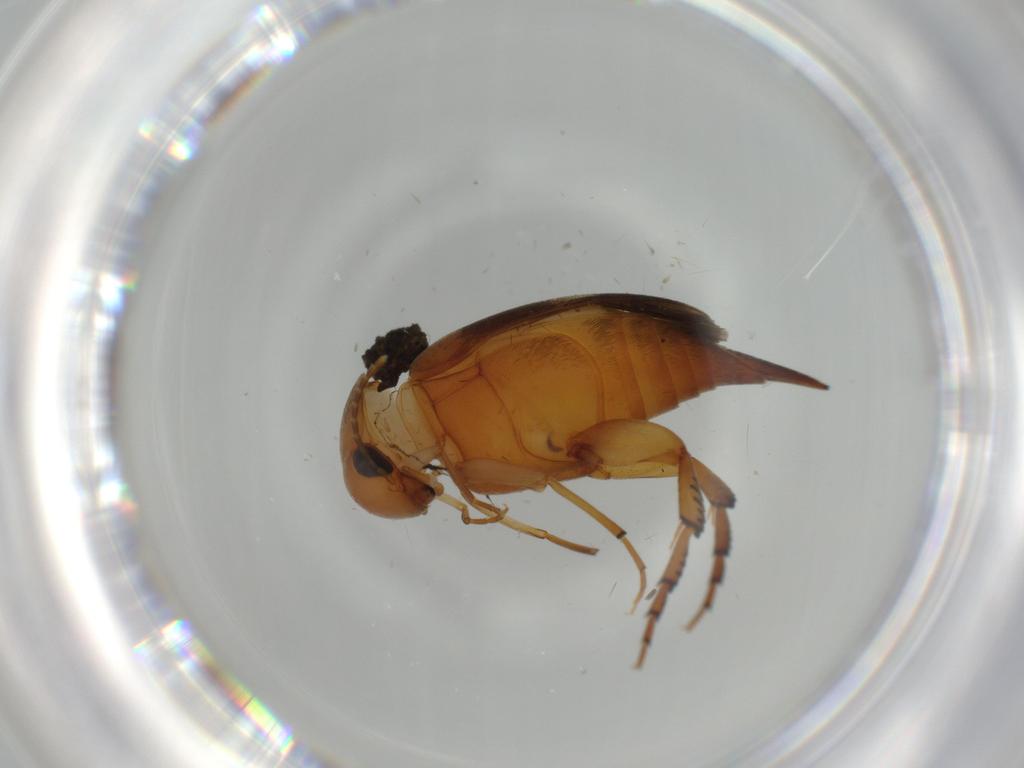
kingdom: Animalia
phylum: Arthropoda
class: Insecta
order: Coleoptera
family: Mordellidae
